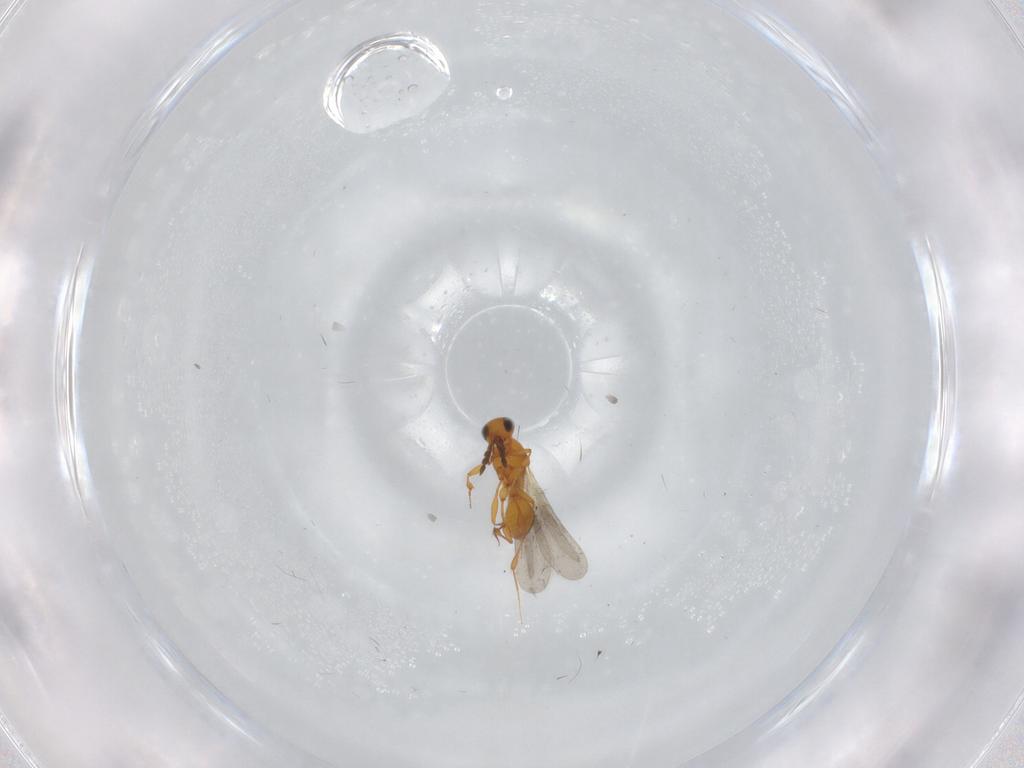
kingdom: Animalia
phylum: Arthropoda
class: Insecta
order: Hymenoptera
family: Platygastridae
